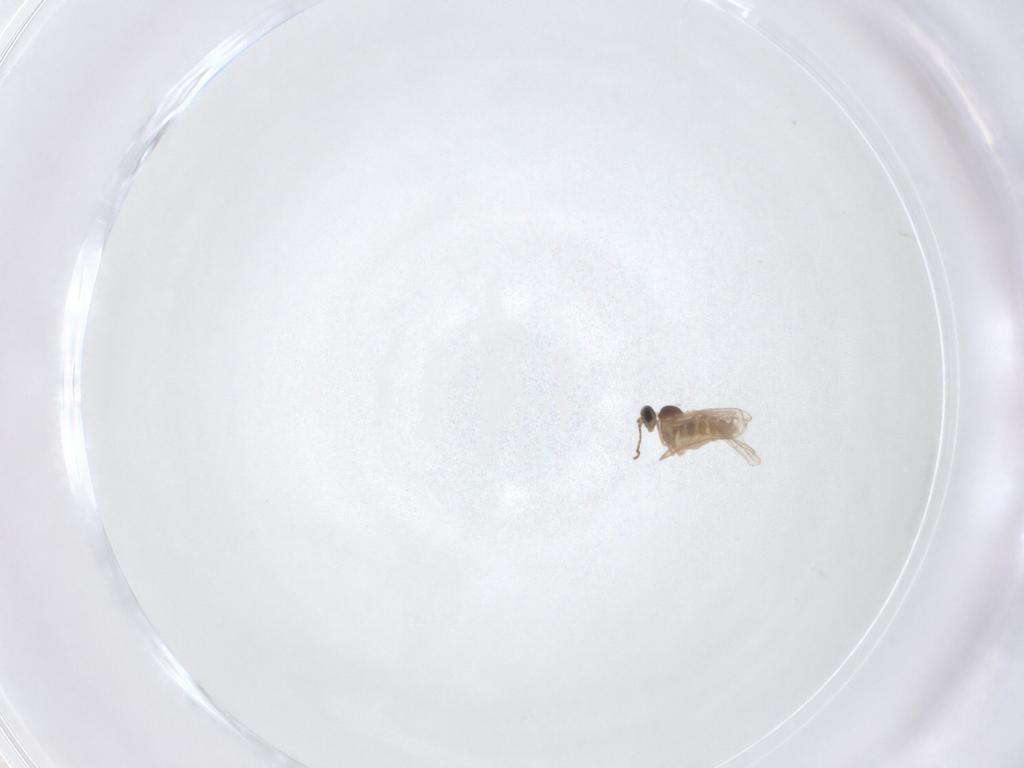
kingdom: Animalia
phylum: Arthropoda
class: Insecta
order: Diptera
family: Cecidomyiidae
